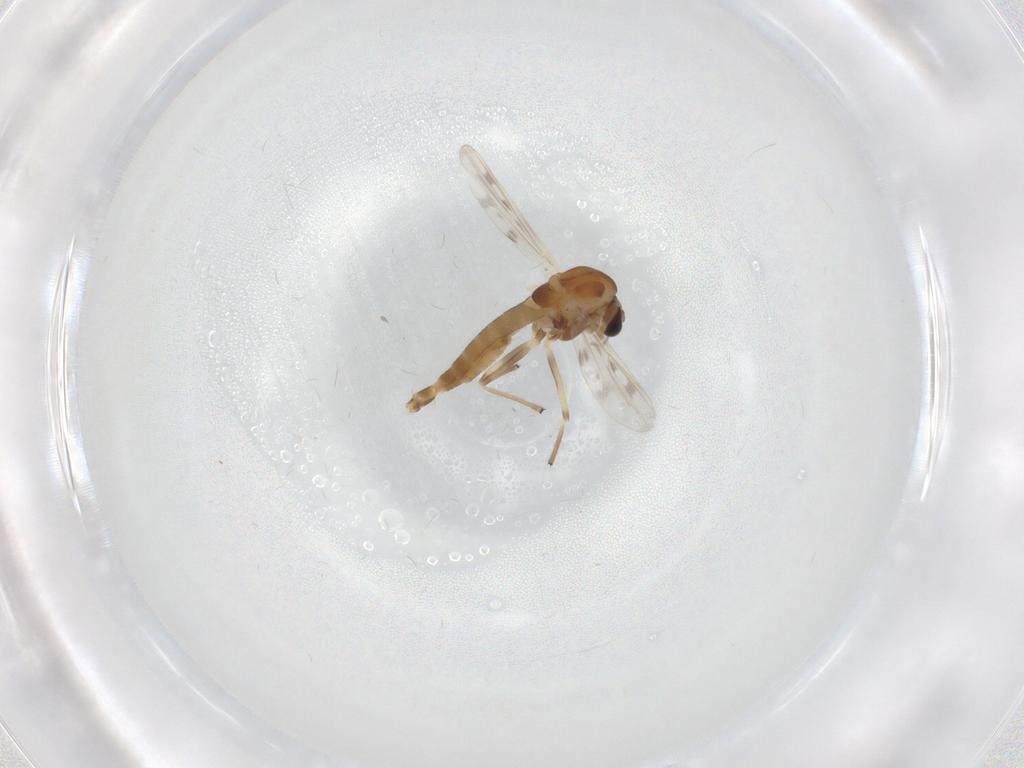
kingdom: Animalia
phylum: Arthropoda
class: Insecta
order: Diptera
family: Chironomidae
